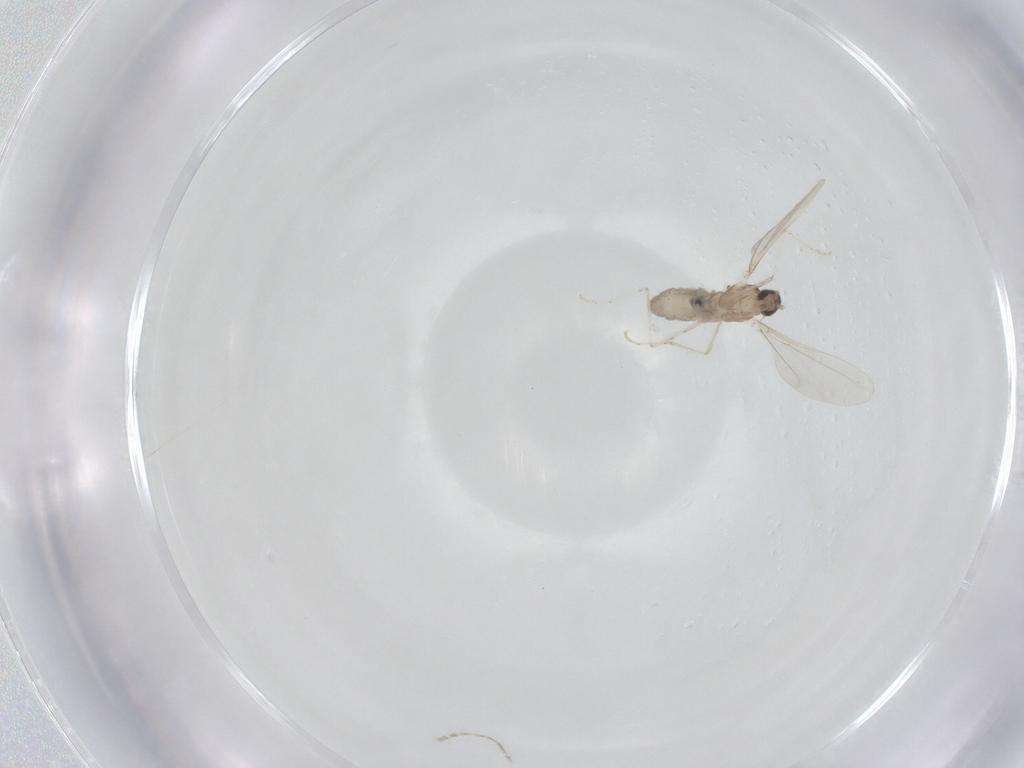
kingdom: Animalia
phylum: Arthropoda
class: Insecta
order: Diptera
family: Cecidomyiidae
